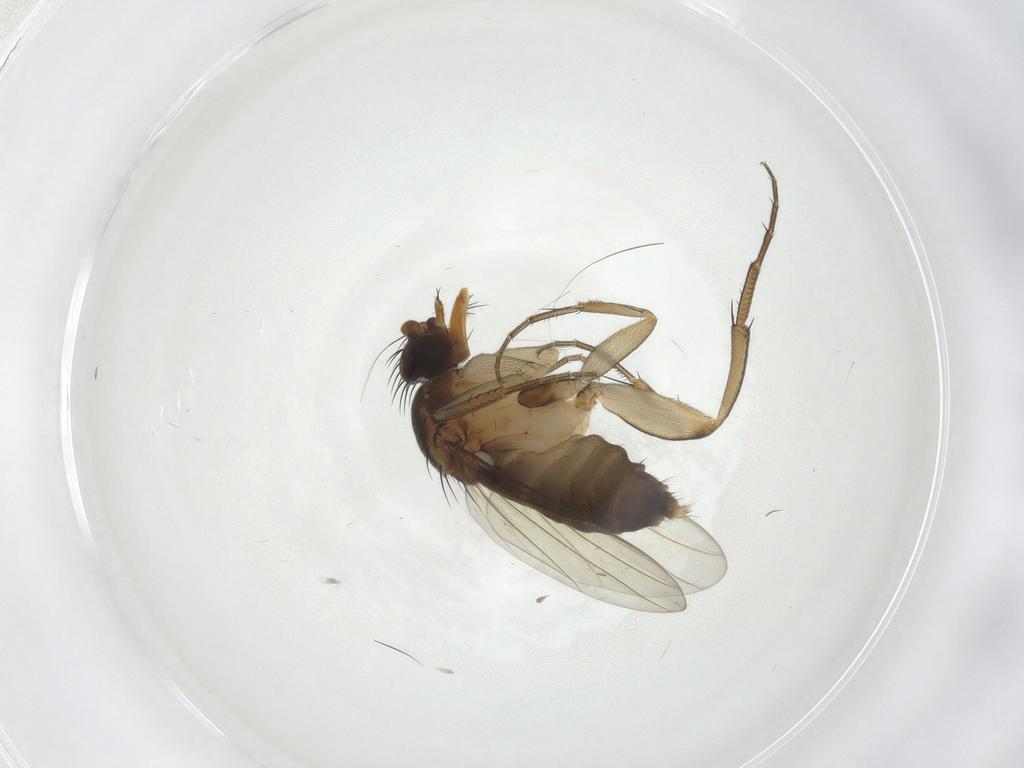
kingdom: Animalia
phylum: Arthropoda
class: Insecta
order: Diptera
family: Phoridae
